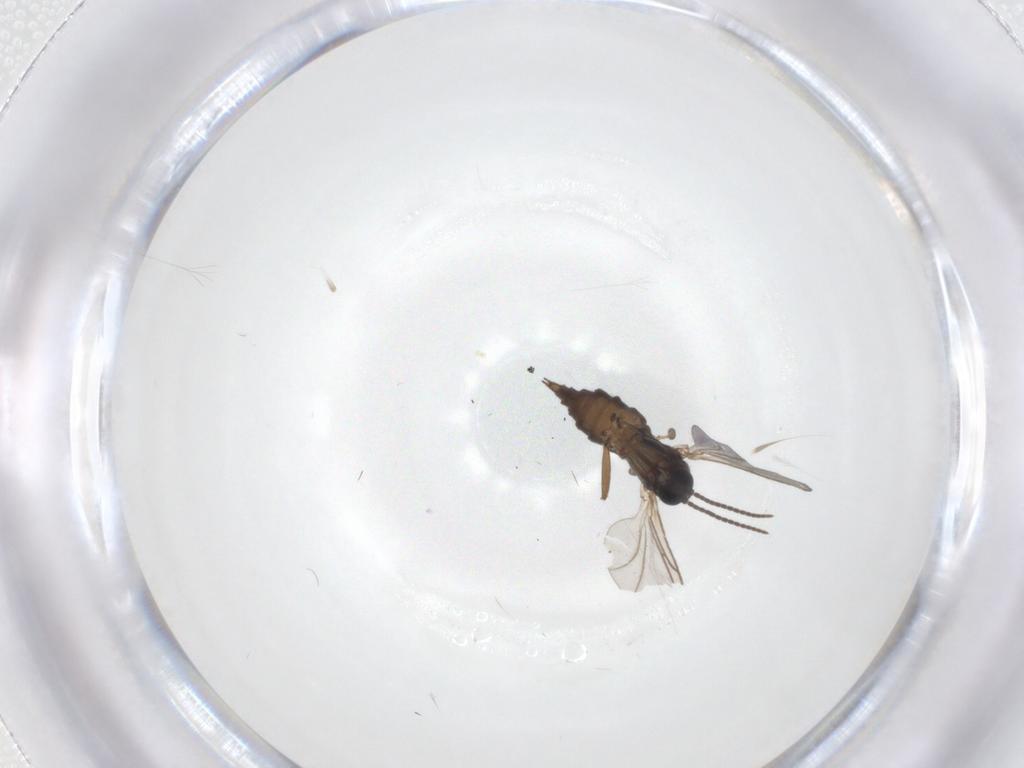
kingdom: Animalia
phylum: Arthropoda
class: Insecta
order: Diptera
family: Sciaridae
